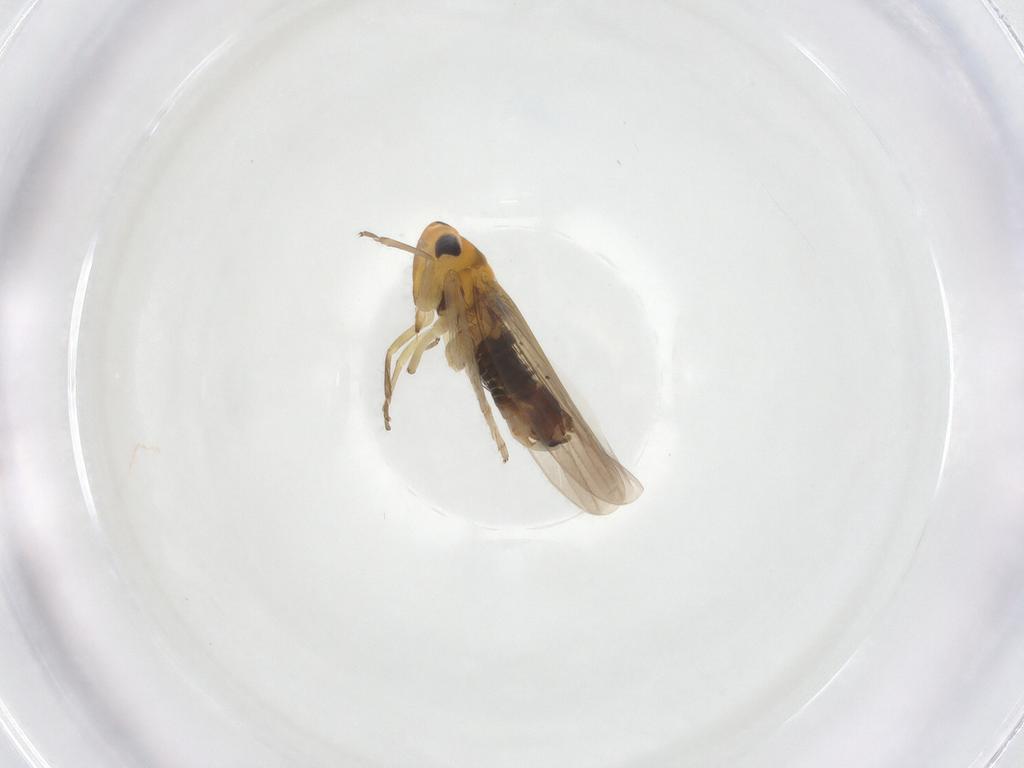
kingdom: Animalia
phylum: Arthropoda
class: Insecta
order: Hemiptera
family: Cicadellidae
